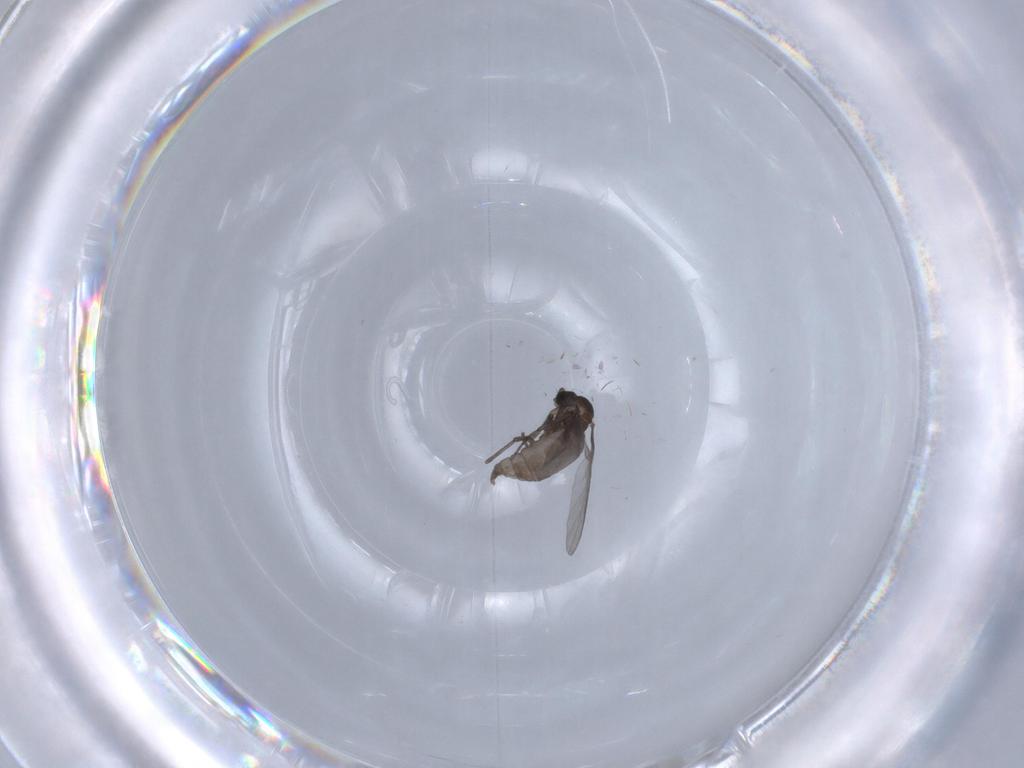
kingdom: Animalia
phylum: Arthropoda
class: Insecta
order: Diptera
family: Sciaridae
